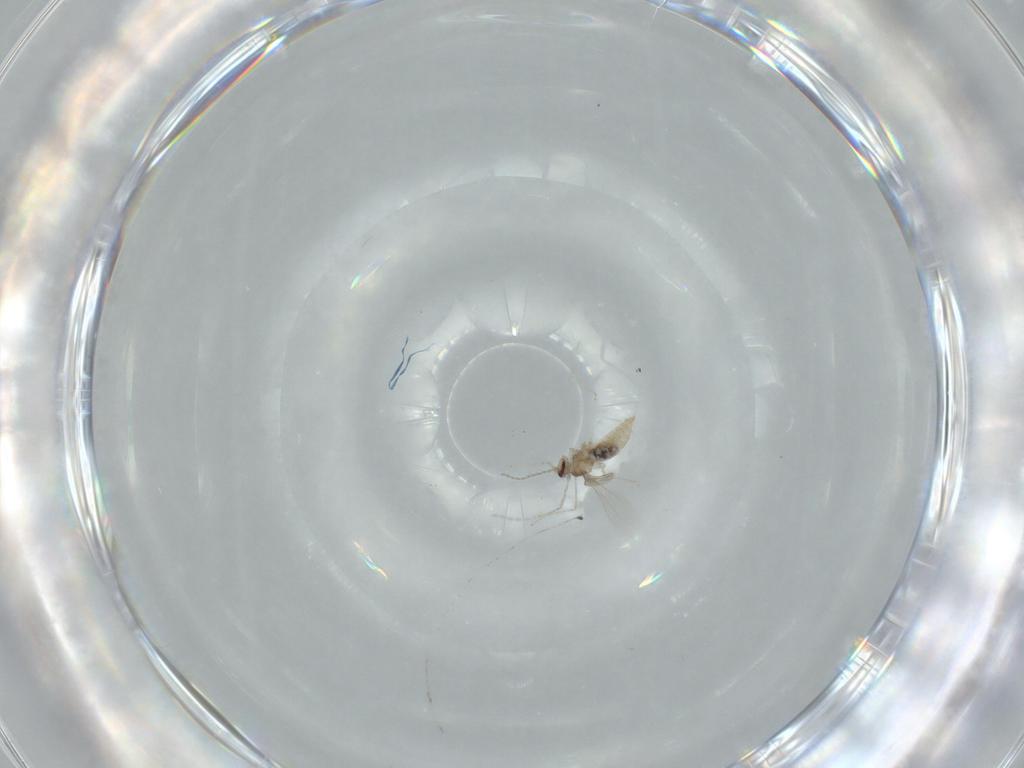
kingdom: Animalia
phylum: Arthropoda
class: Insecta
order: Diptera
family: Cecidomyiidae
